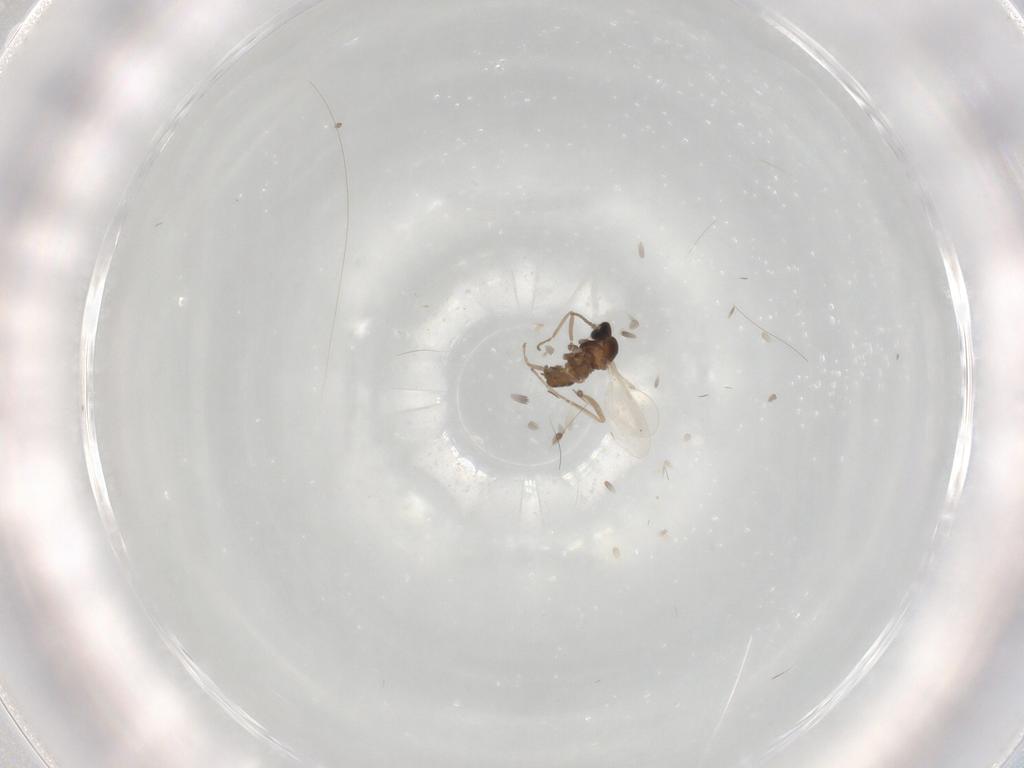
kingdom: Animalia
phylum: Arthropoda
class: Insecta
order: Diptera
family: Cecidomyiidae
